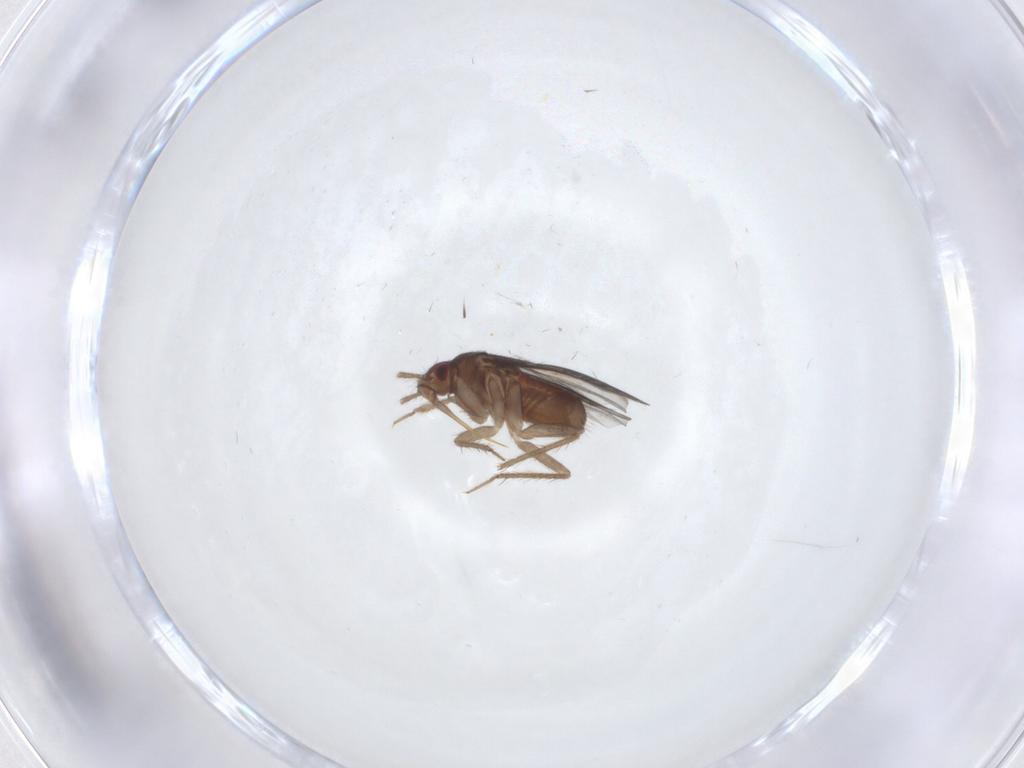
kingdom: Animalia
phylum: Arthropoda
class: Insecta
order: Hemiptera
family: Ceratocombidae
